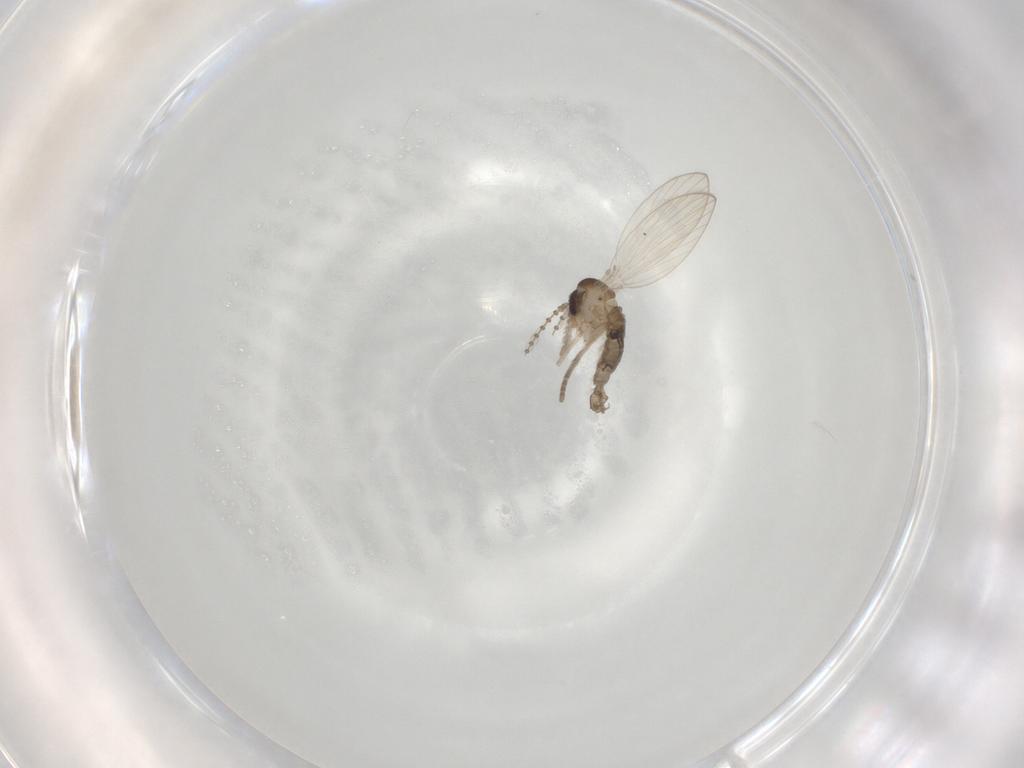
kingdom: Animalia
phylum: Arthropoda
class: Insecta
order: Diptera
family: Psychodidae
